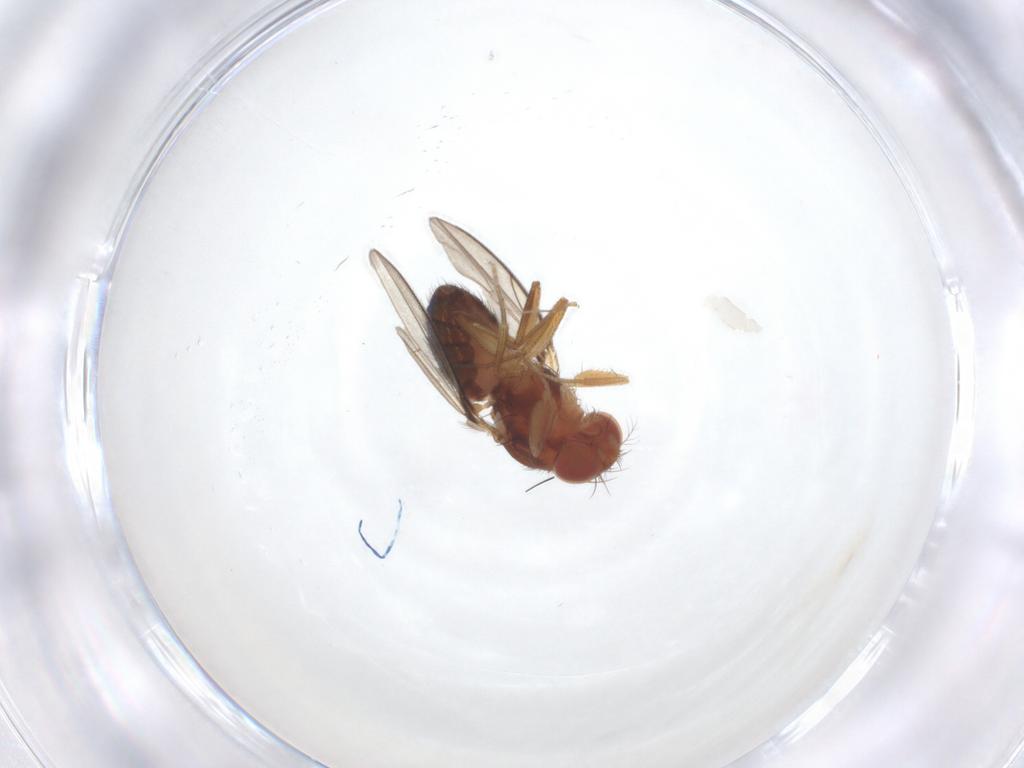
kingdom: Animalia
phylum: Arthropoda
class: Insecta
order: Diptera
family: Drosophilidae
